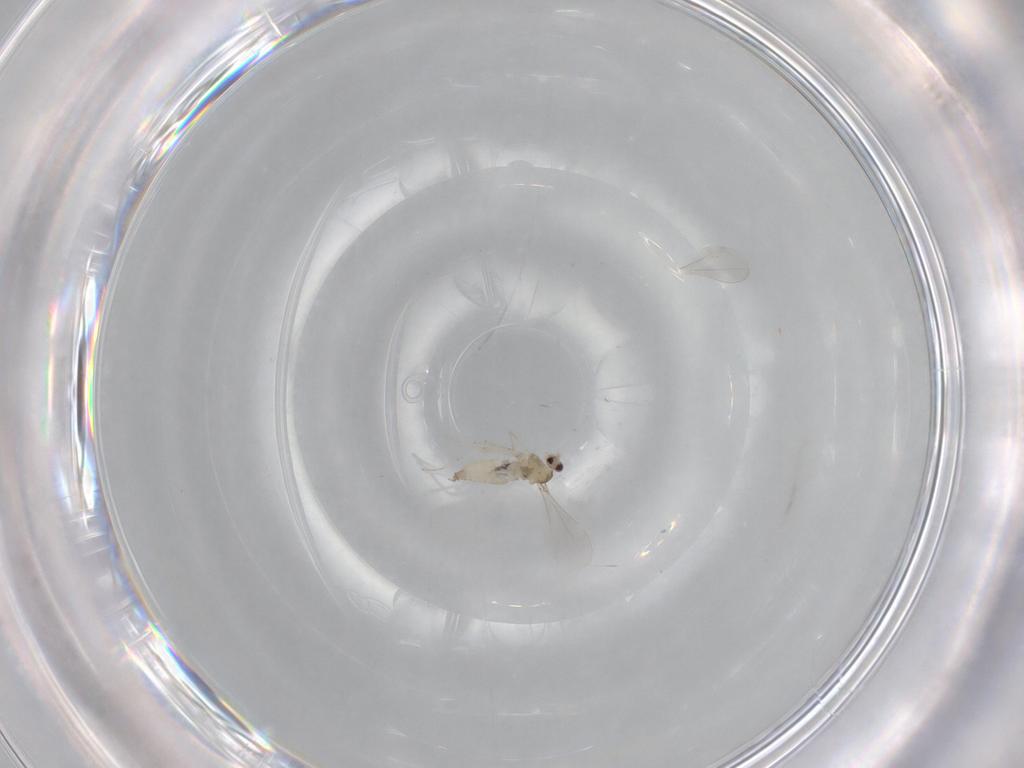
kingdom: Animalia
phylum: Arthropoda
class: Insecta
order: Diptera
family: Cecidomyiidae
